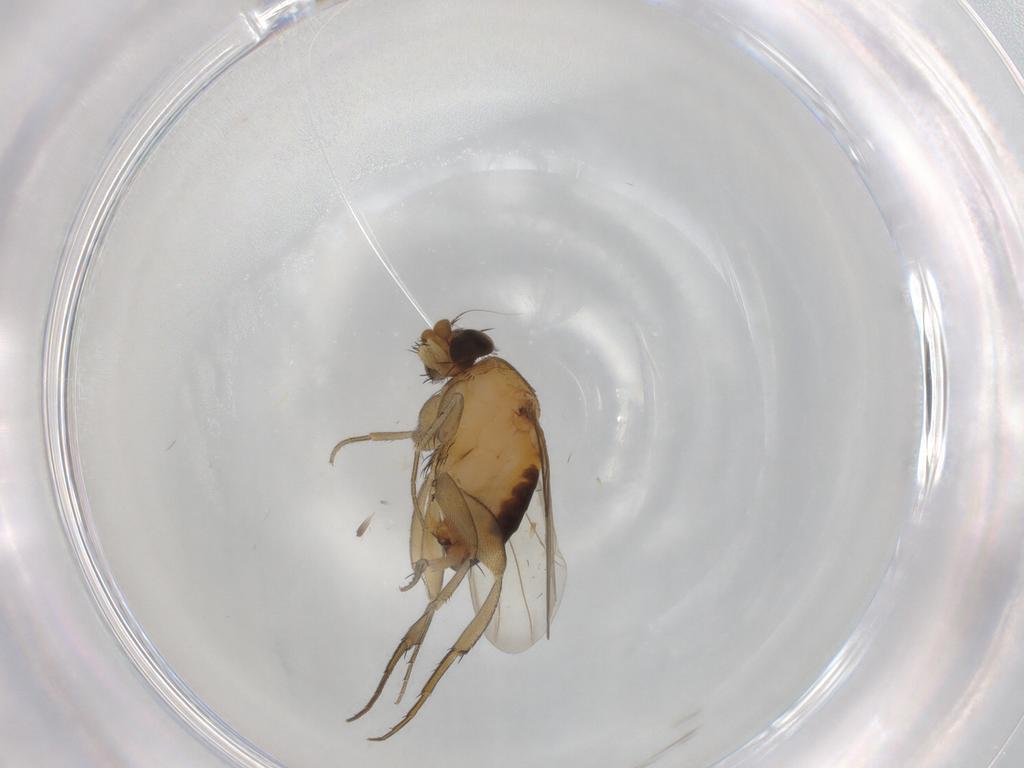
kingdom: Animalia
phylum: Arthropoda
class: Insecta
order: Diptera
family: Phoridae
